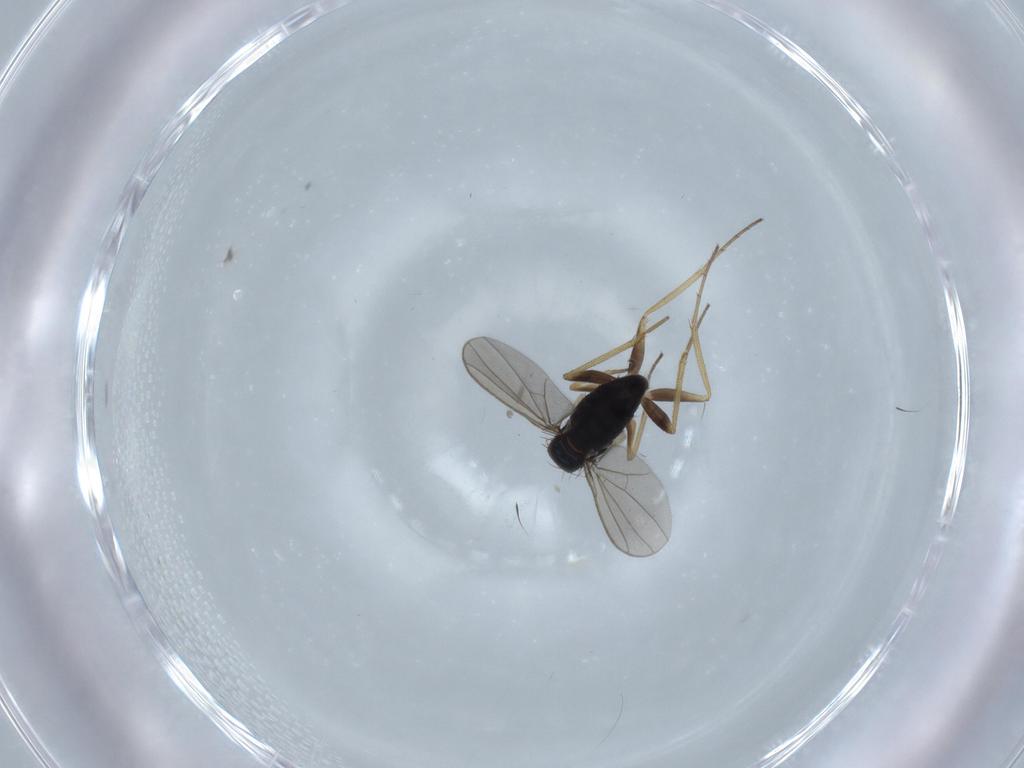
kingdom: Animalia
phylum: Arthropoda
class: Insecta
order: Diptera
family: Dolichopodidae
